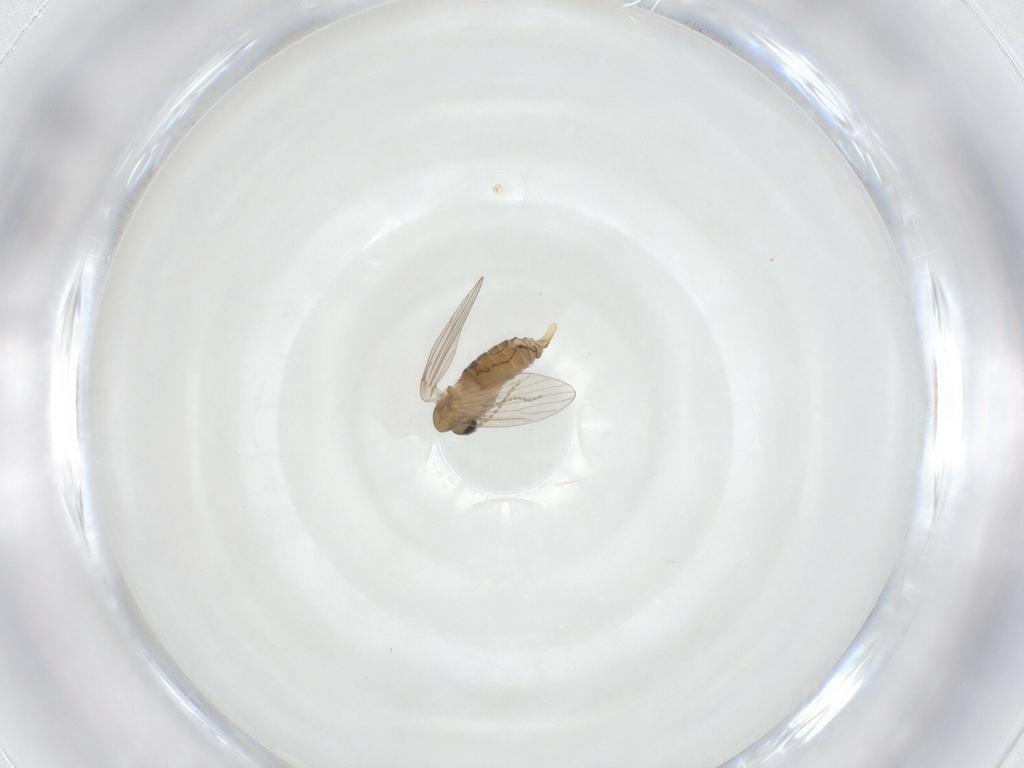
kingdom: Animalia
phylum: Arthropoda
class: Insecta
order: Diptera
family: Psychodidae
